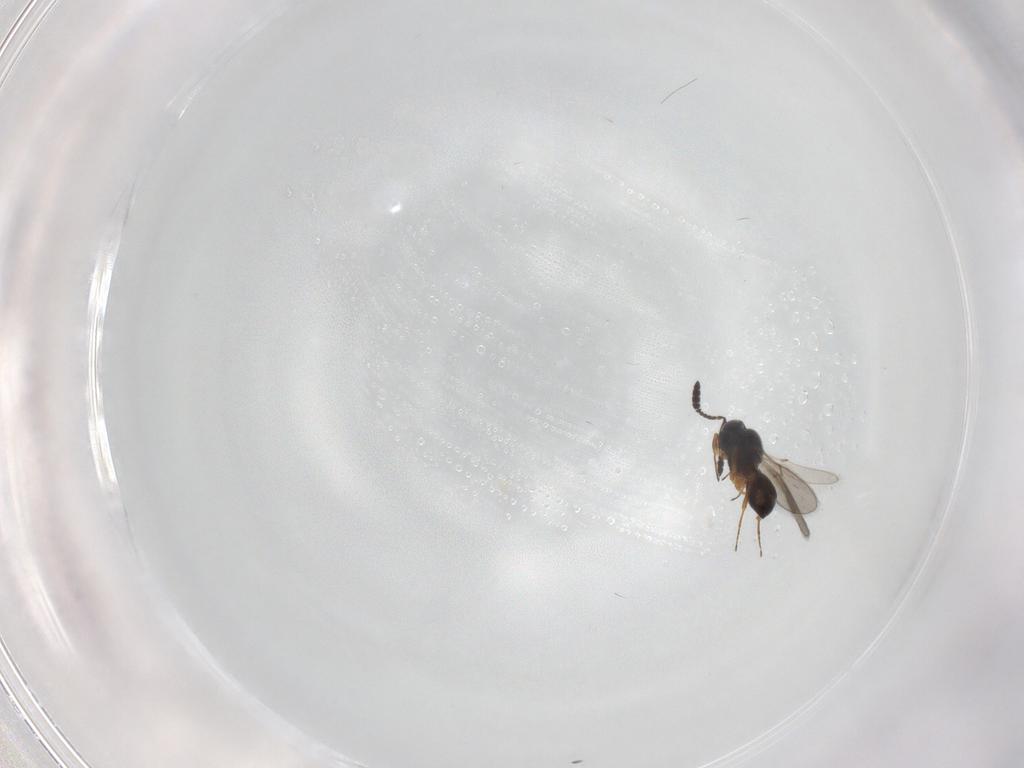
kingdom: Animalia
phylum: Arthropoda
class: Insecta
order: Hymenoptera
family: Scelionidae
